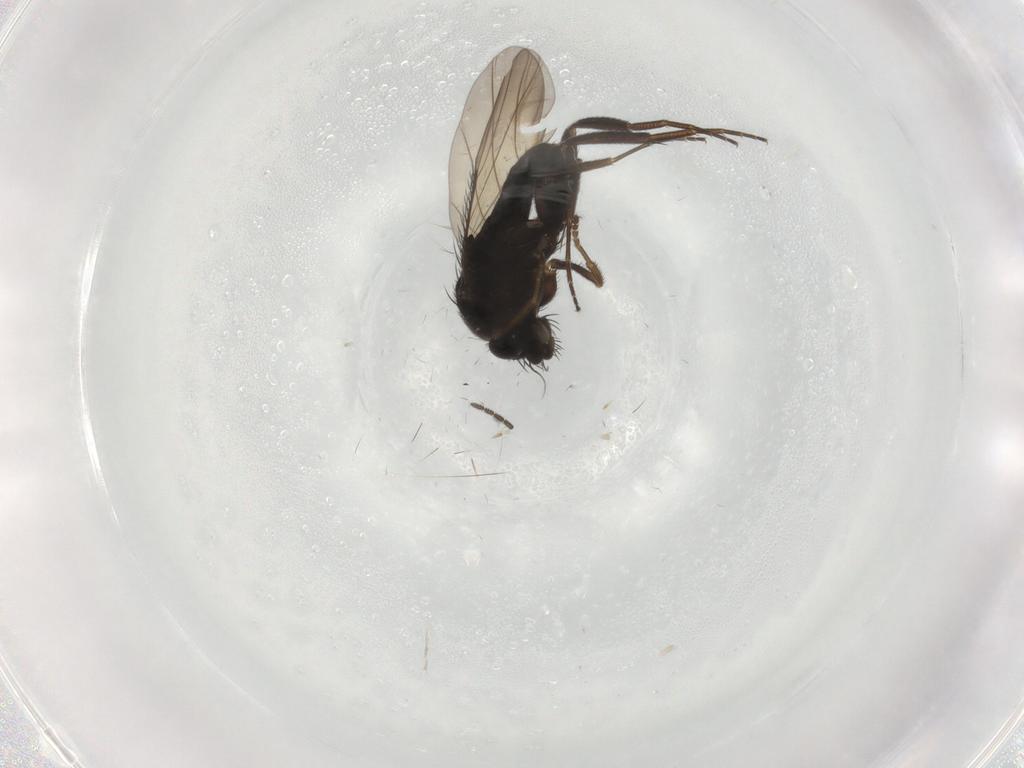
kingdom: Animalia
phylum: Arthropoda
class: Insecta
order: Diptera
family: Phoridae
